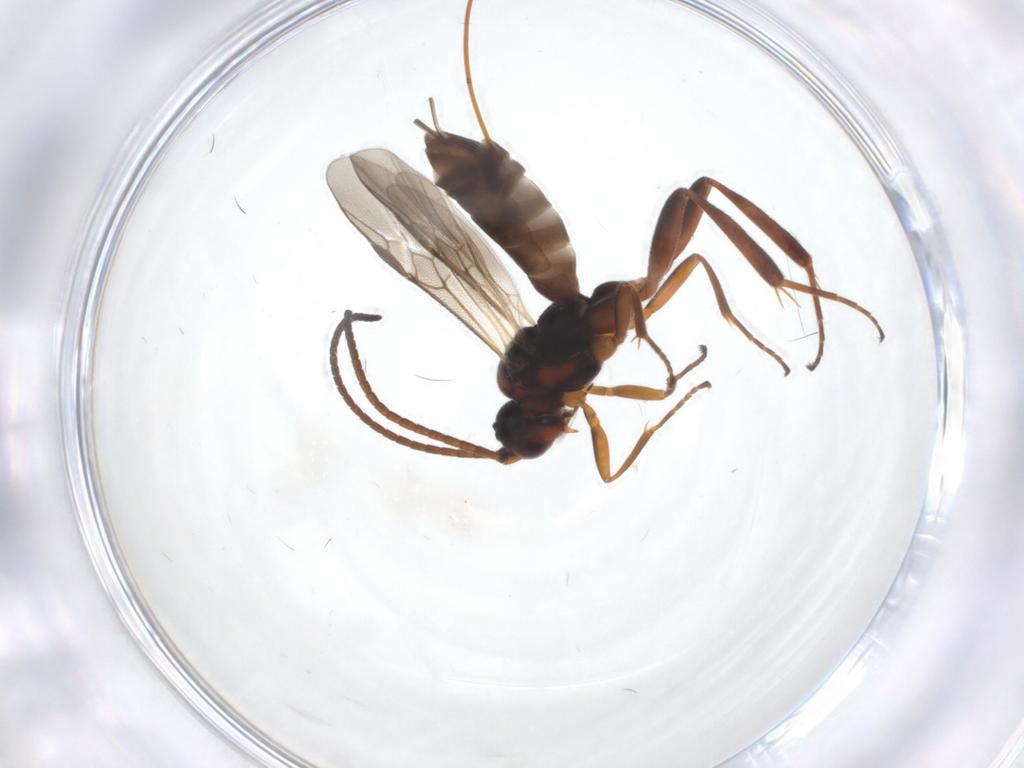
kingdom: Animalia
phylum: Arthropoda
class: Insecta
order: Hymenoptera
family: Braconidae
